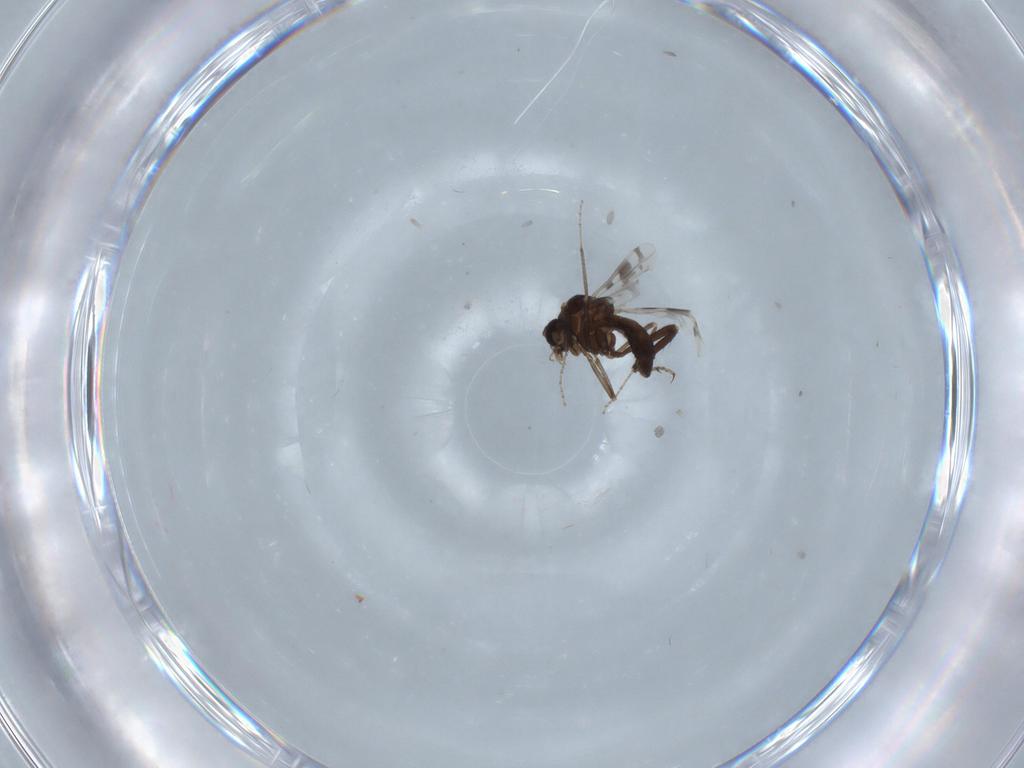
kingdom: Animalia
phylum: Arthropoda
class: Insecta
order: Diptera
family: Ceratopogonidae
